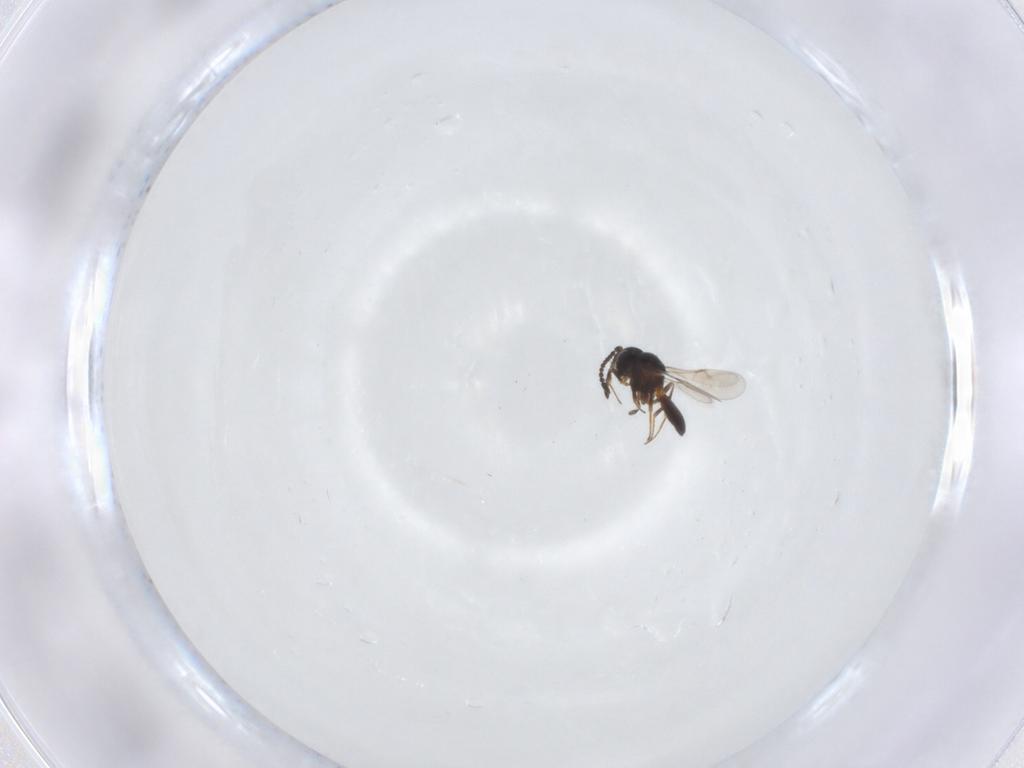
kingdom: Animalia
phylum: Arthropoda
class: Insecta
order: Hymenoptera
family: Scelionidae
